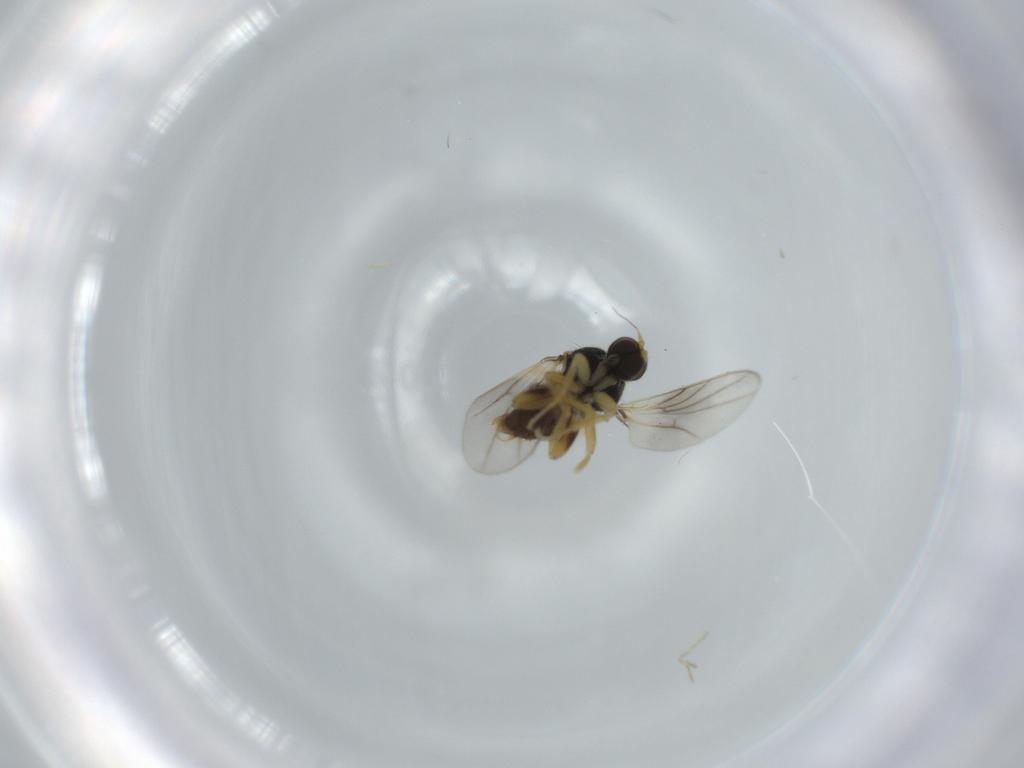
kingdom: Animalia
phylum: Arthropoda
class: Insecta
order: Diptera
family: Hybotidae
